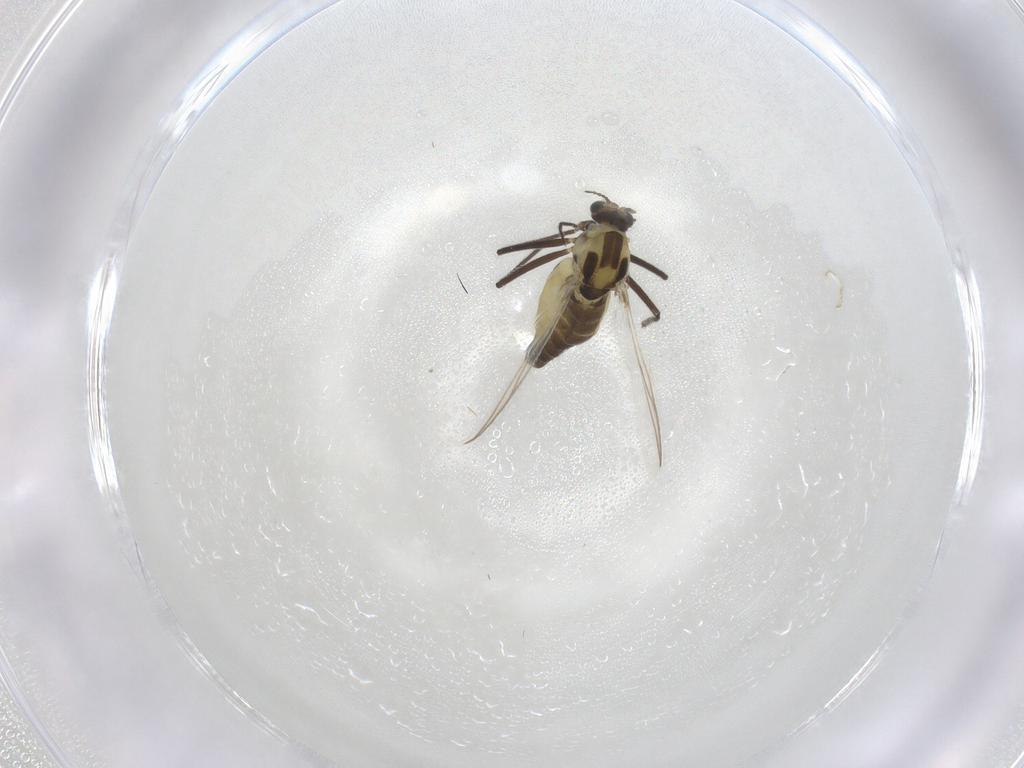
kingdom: Animalia
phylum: Arthropoda
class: Insecta
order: Diptera
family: Chironomidae
